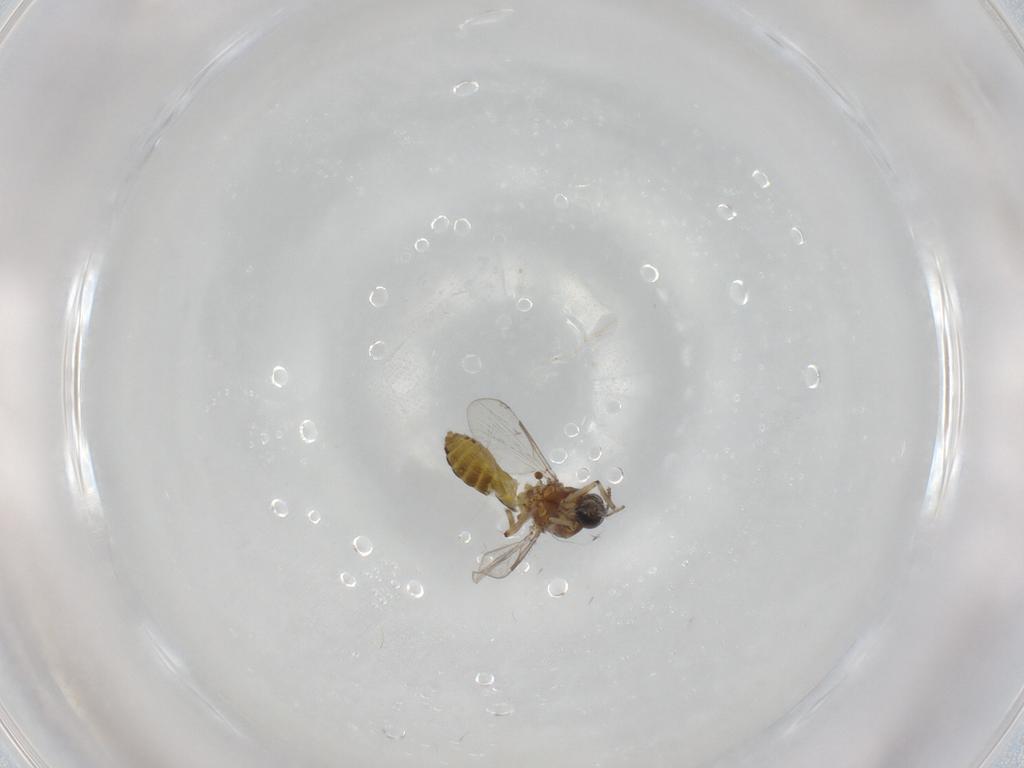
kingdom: Animalia
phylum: Arthropoda
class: Insecta
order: Diptera
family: Ceratopogonidae
